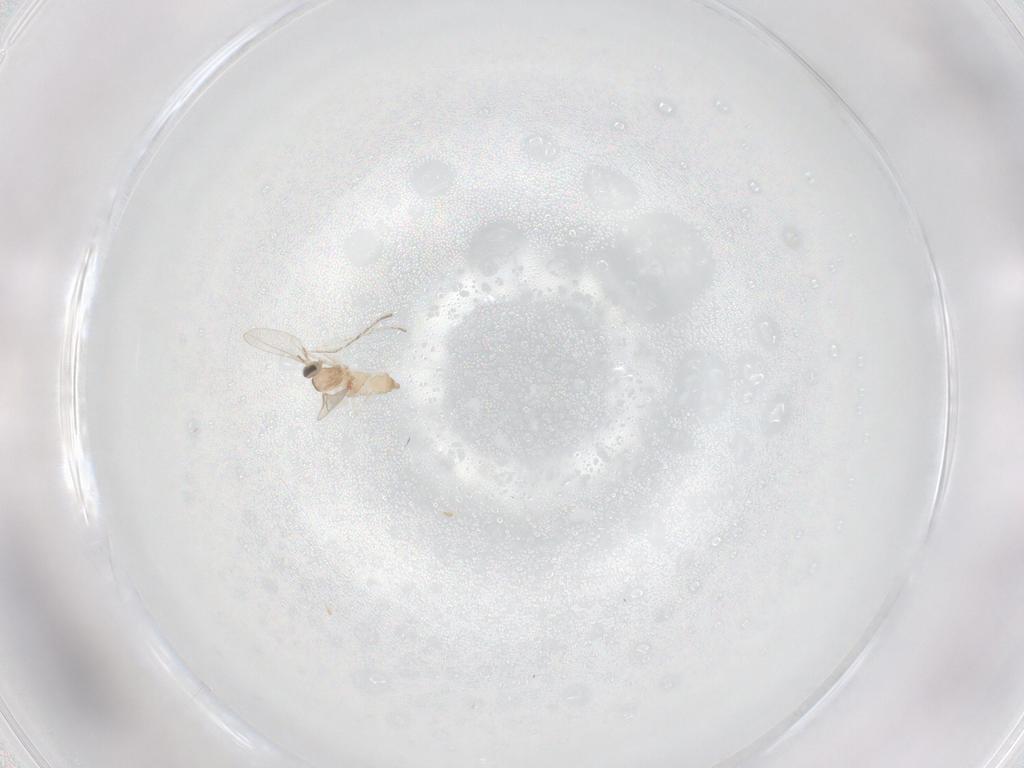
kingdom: Animalia
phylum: Arthropoda
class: Insecta
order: Diptera
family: Cecidomyiidae
